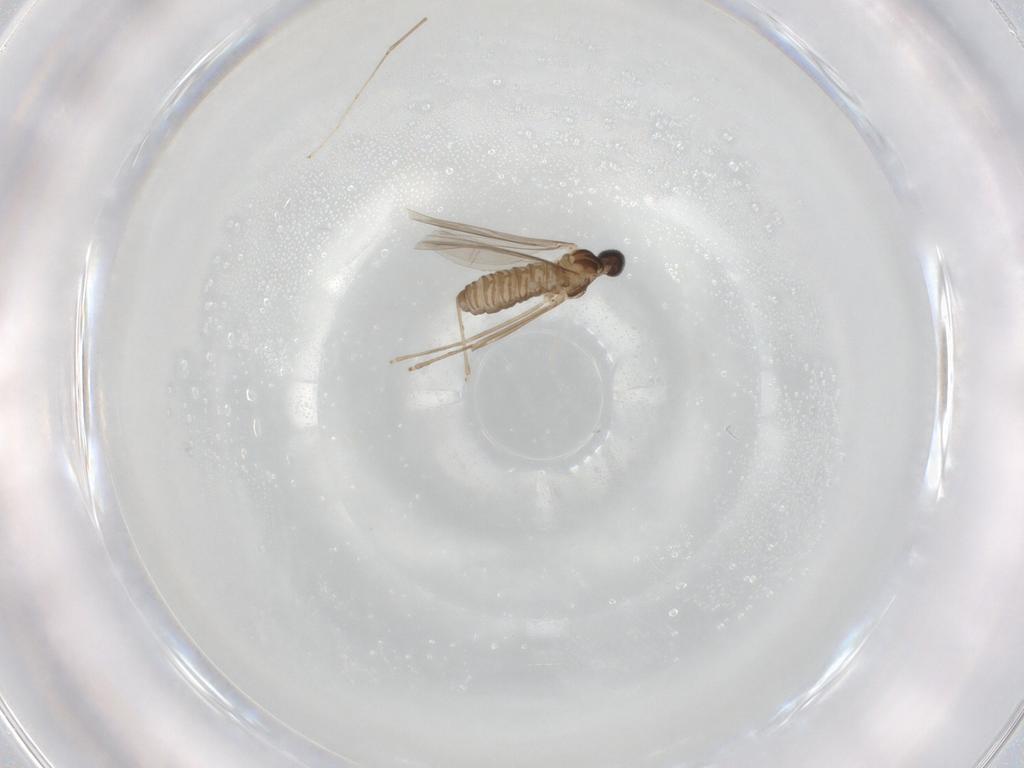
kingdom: Animalia
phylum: Arthropoda
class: Insecta
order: Diptera
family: Cecidomyiidae
